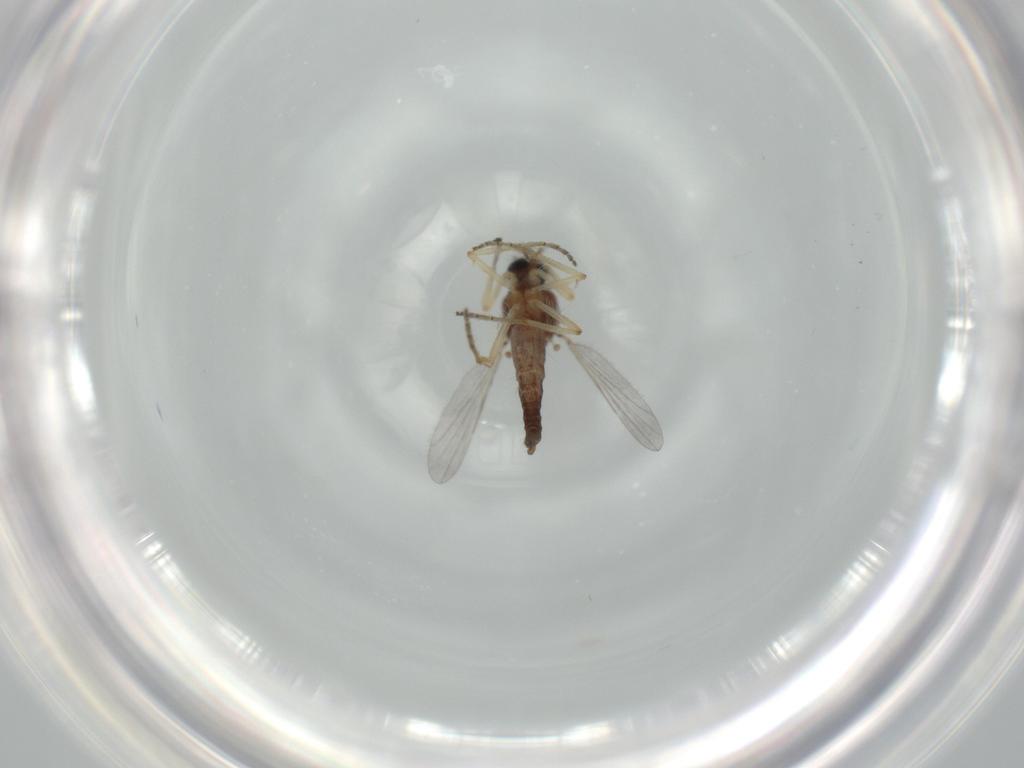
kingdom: Animalia
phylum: Arthropoda
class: Insecta
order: Diptera
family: Ceratopogonidae
